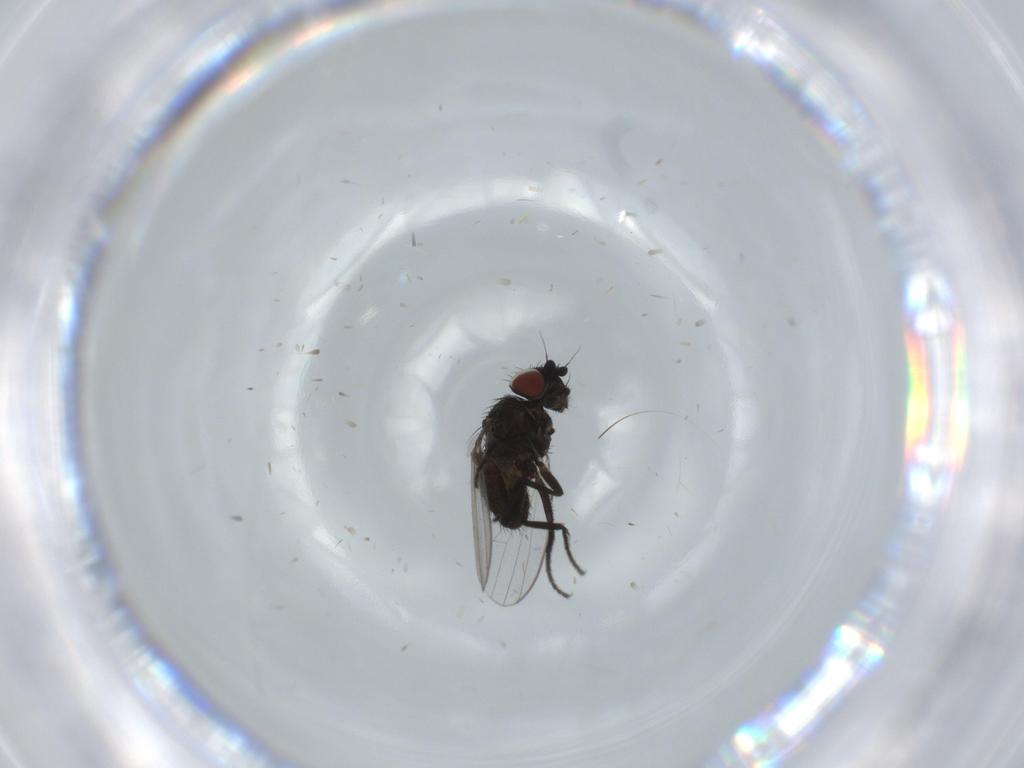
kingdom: Animalia
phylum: Arthropoda
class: Insecta
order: Diptera
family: Milichiidae
